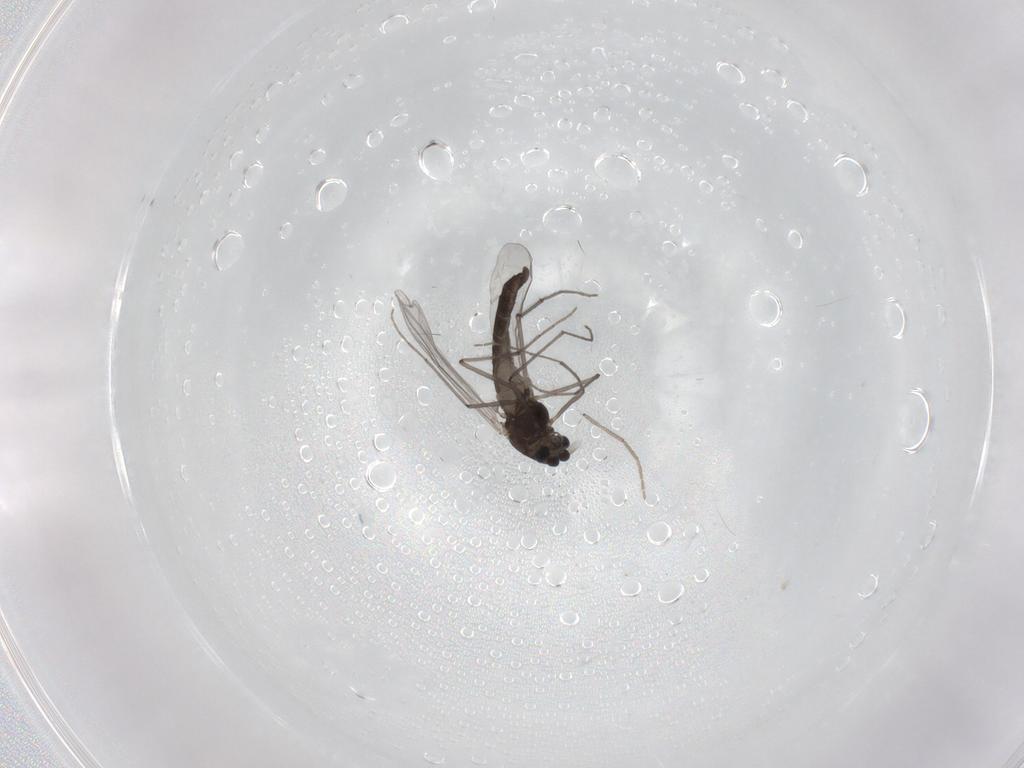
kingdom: Animalia
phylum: Arthropoda
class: Insecta
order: Diptera
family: Chironomidae
